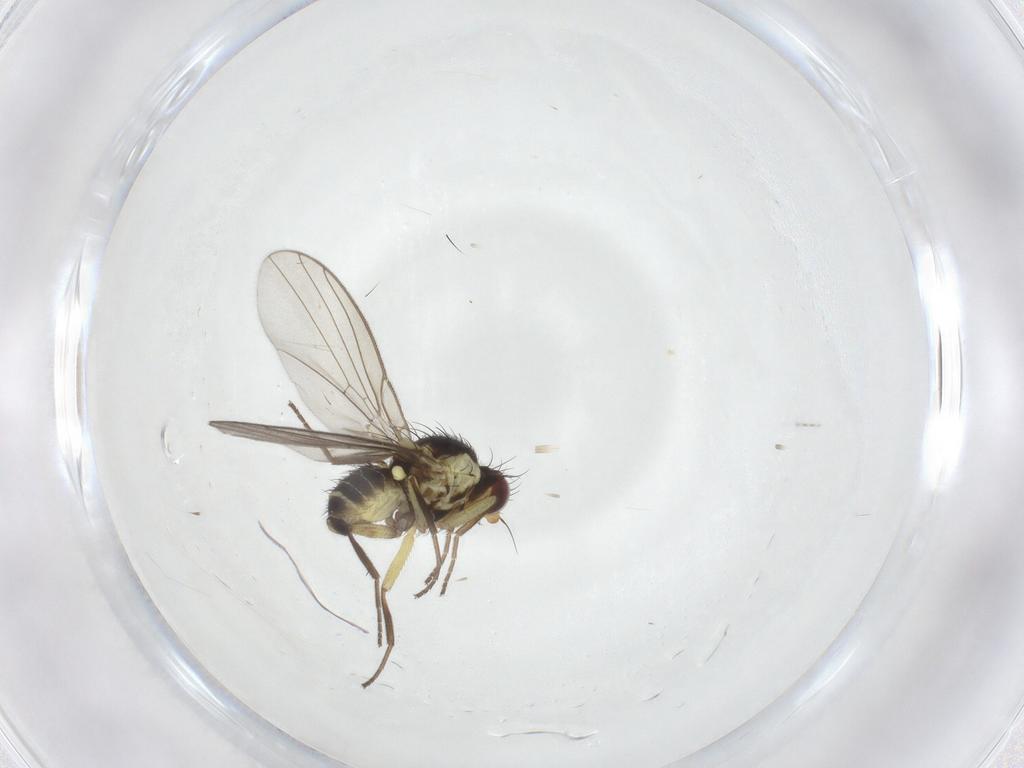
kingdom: Animalia
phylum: Arthropoda
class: Insecta
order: Diptera
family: Agromyzidae
